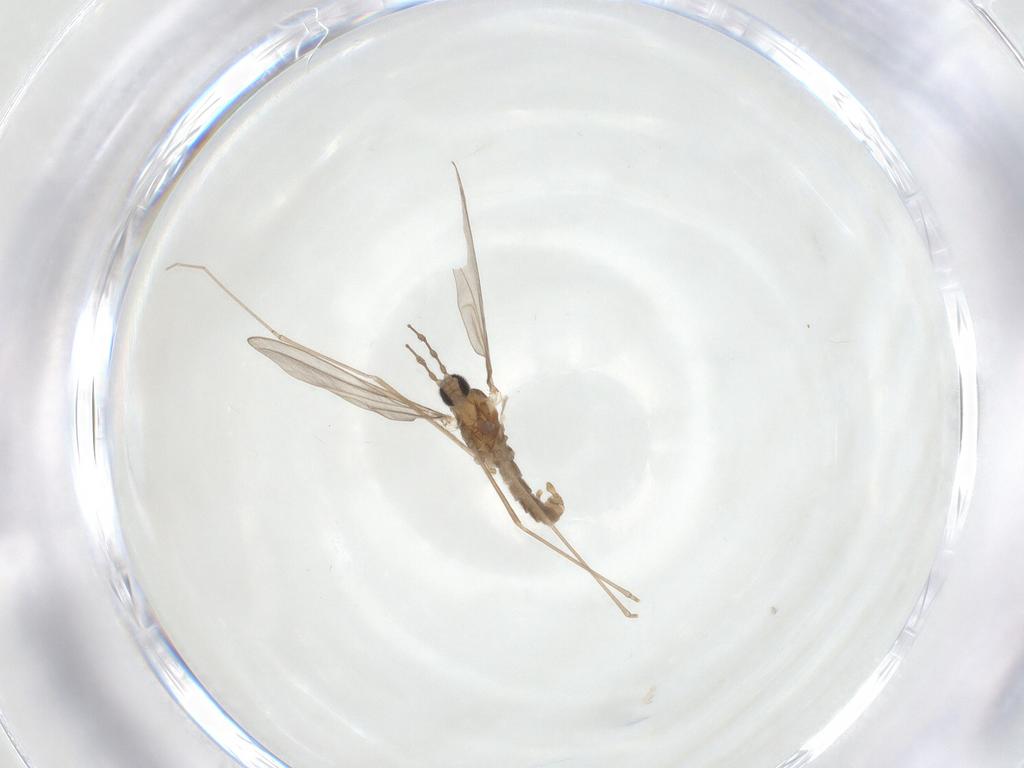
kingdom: Animalia
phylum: Arthropoda
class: Insecta
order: Diptera
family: Cecidomyiidae
